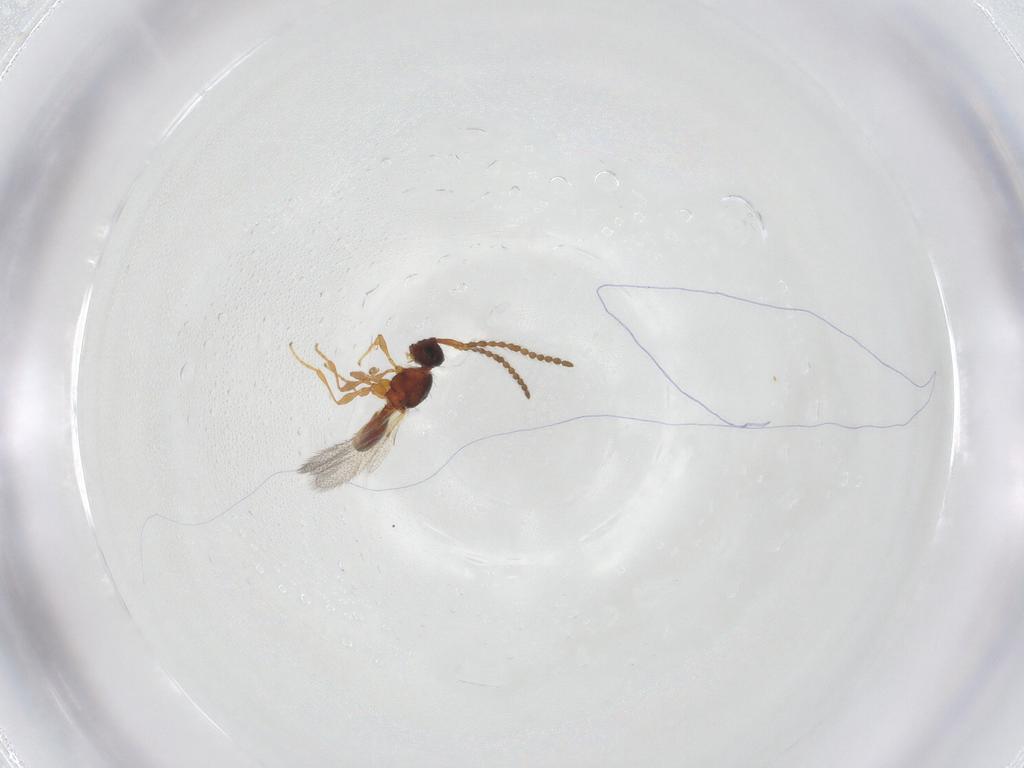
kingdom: Animalia
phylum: Arthropoda
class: Insecta
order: Hymenoptera
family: Diapriidae
